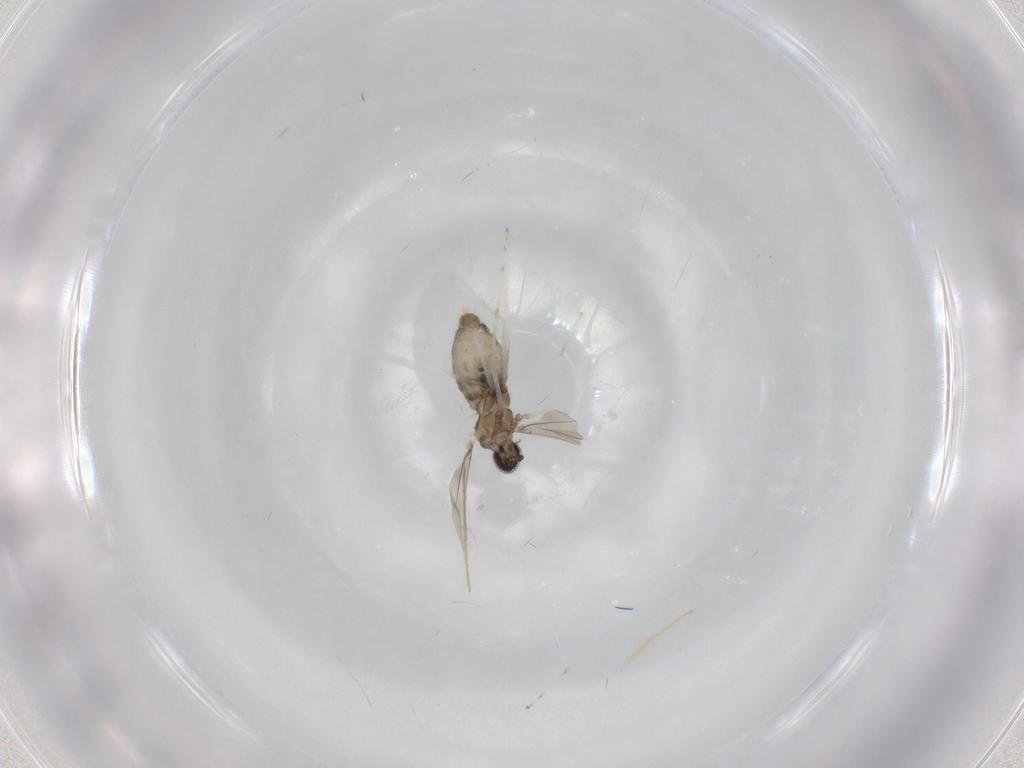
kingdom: Animalia
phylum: Arthropoda
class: Insecta
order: Diptera
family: Cecidomyiidae
